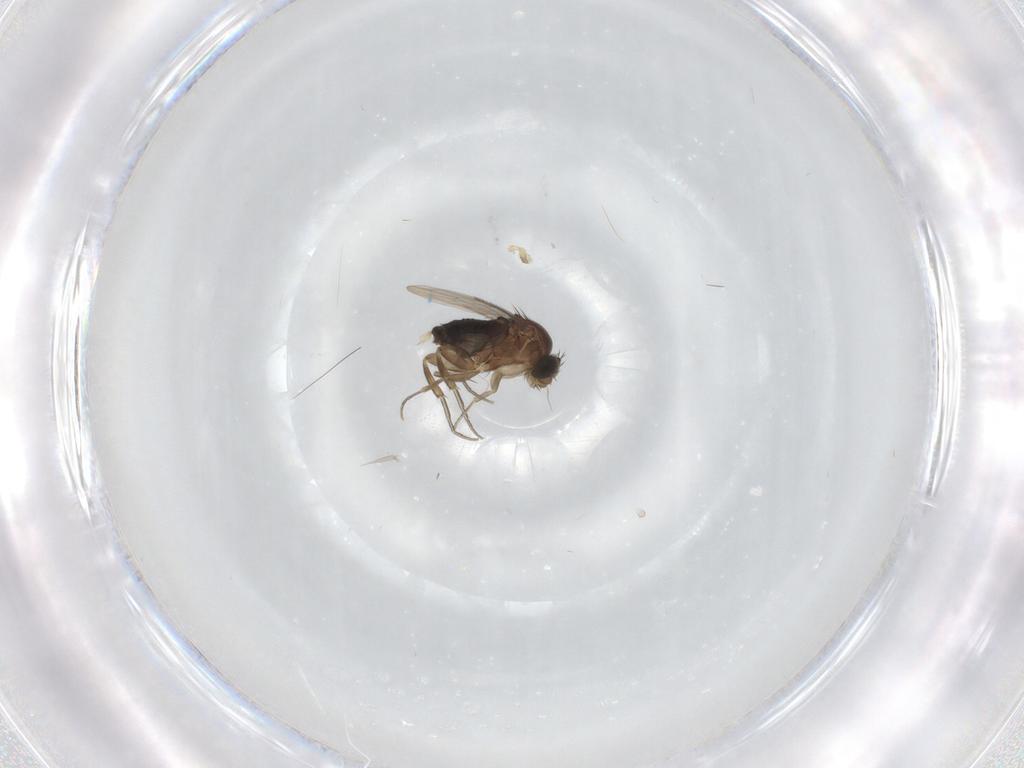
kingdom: Animalia
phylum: Arthropoda
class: Insecta
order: Diptera
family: Phoridae
